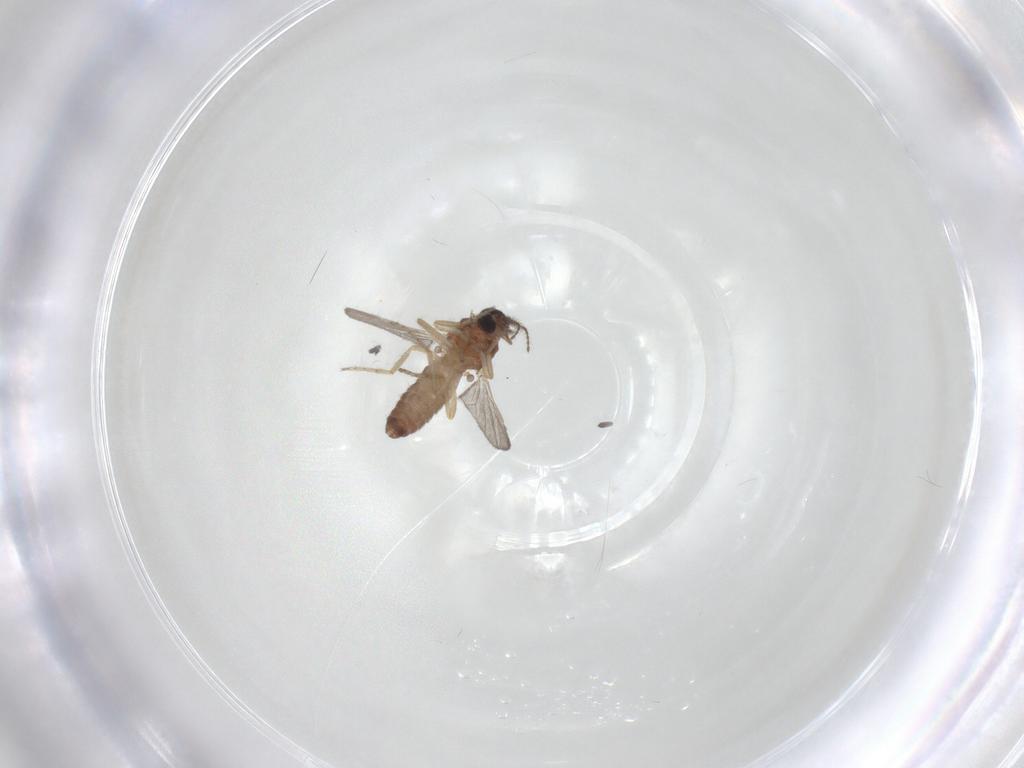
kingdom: Animalia
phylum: Arthropoda
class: Insecta
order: Diptera
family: Ceratopogonidae
